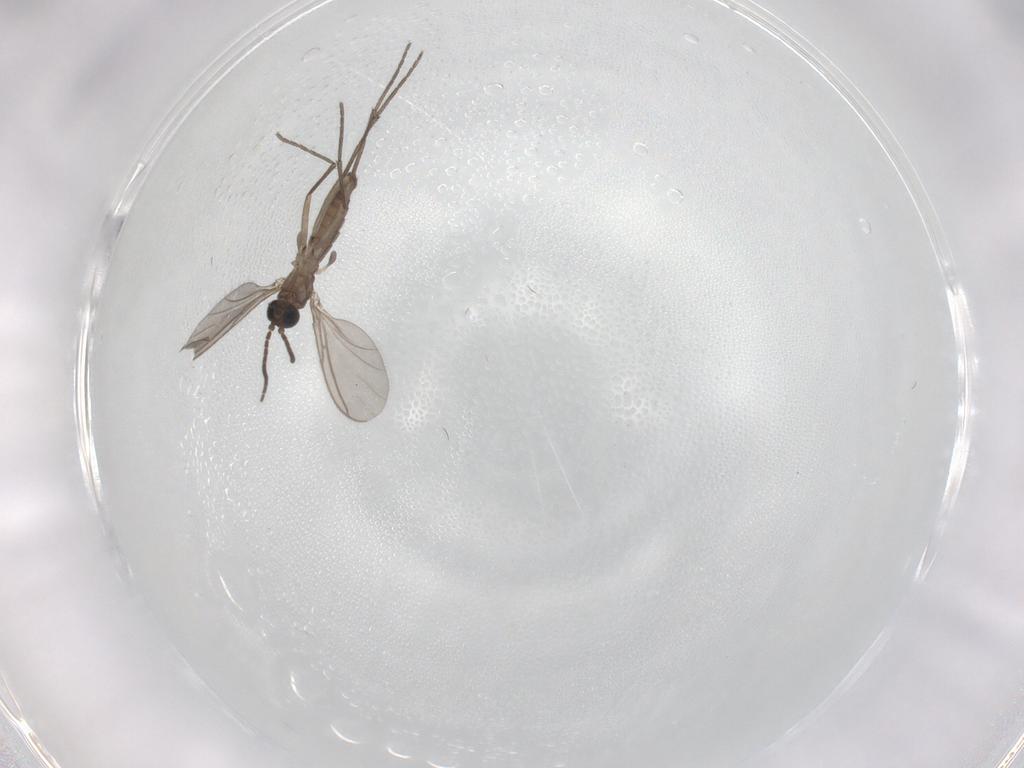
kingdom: Animalia
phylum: Arthropoda
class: Insecta
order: Diptera
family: Sciaridae
